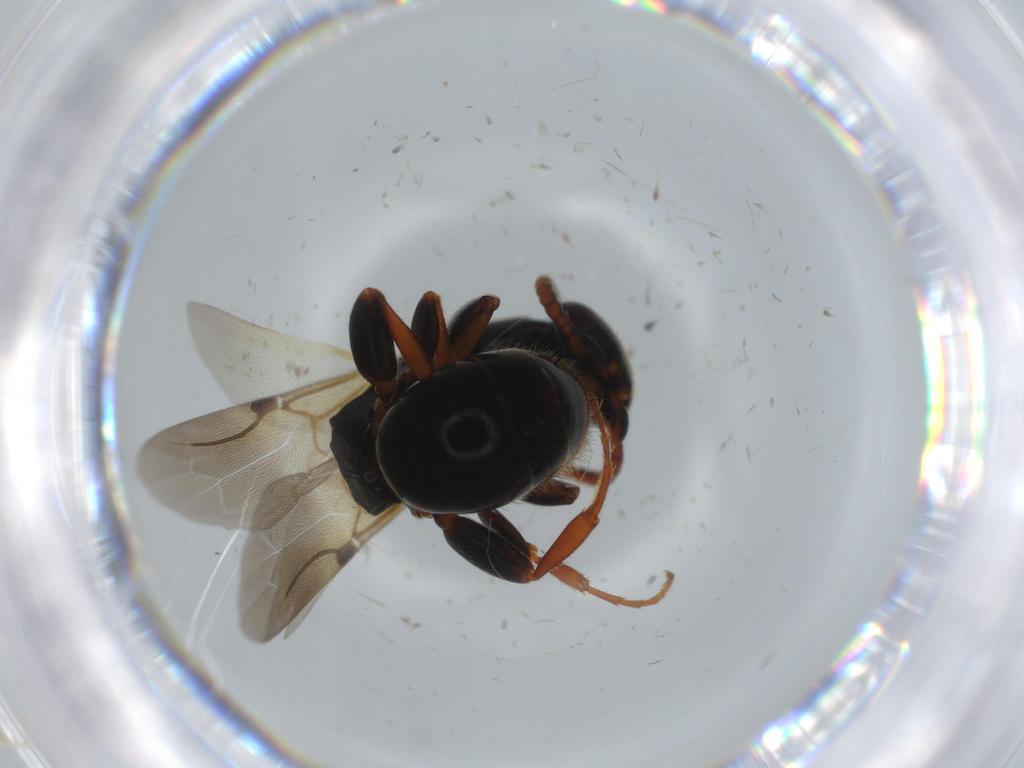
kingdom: Animalia
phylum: Arthropoda
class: Insecta
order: Hymenoptera
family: Bethylidae
